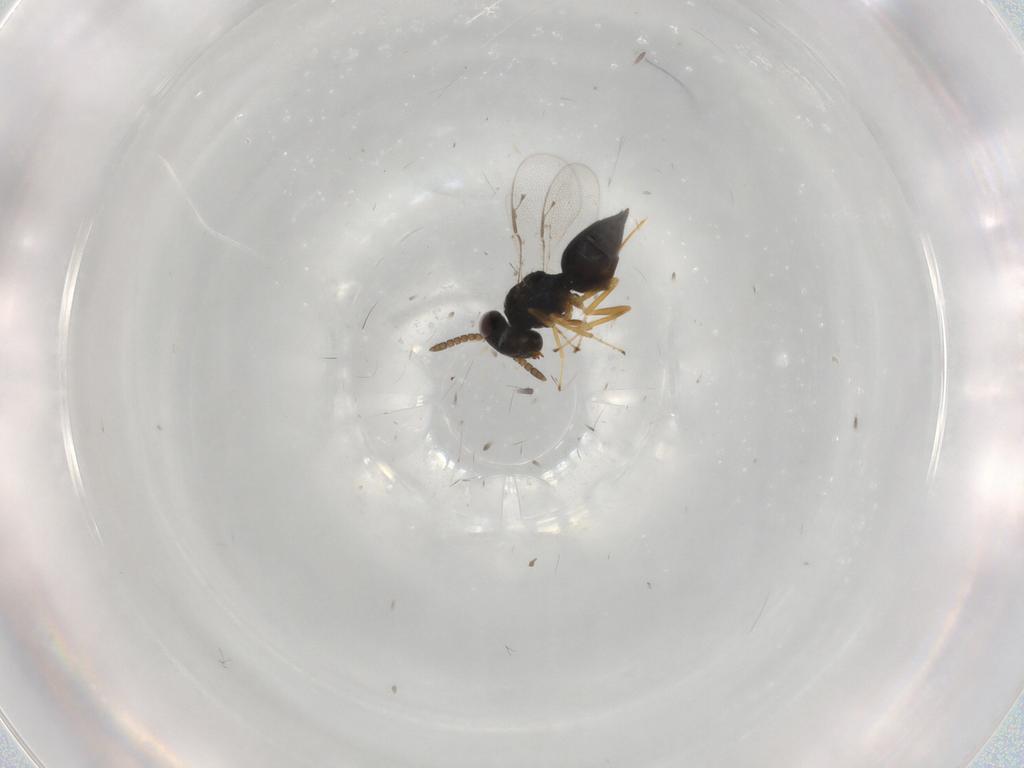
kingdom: Animalia
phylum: Arthropoda
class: Insecta
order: Hymenoptera
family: Pteromalidae
